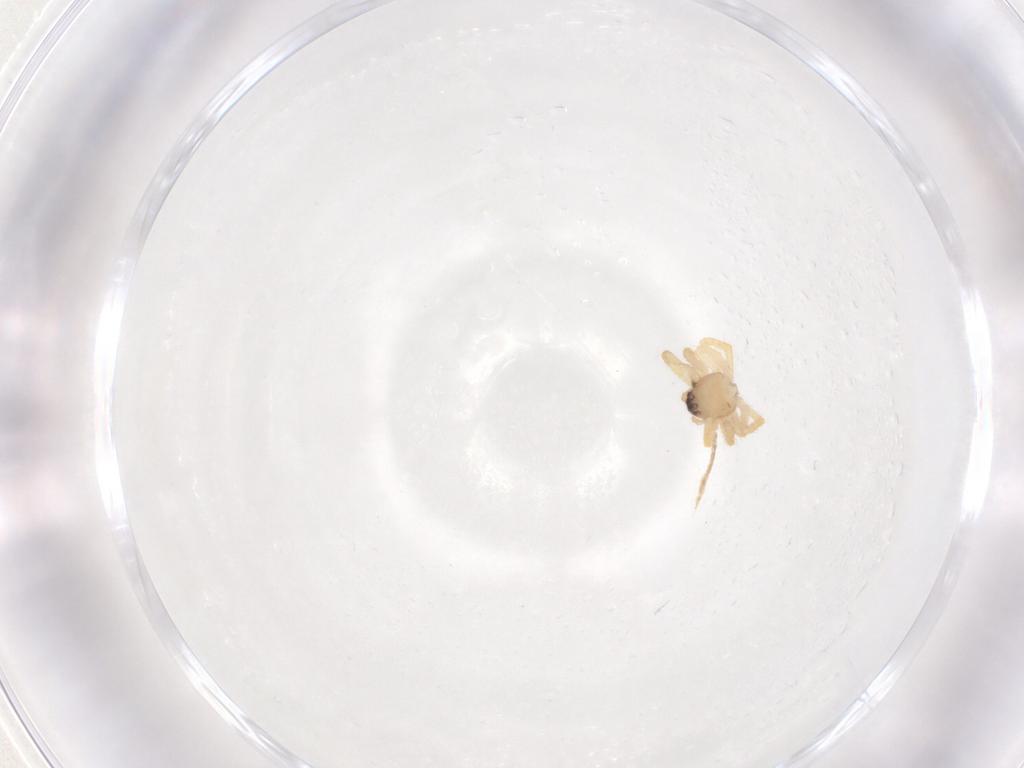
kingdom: Animalia
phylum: Arthropoda
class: Arachnida
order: Araneae
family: Theridiidae
